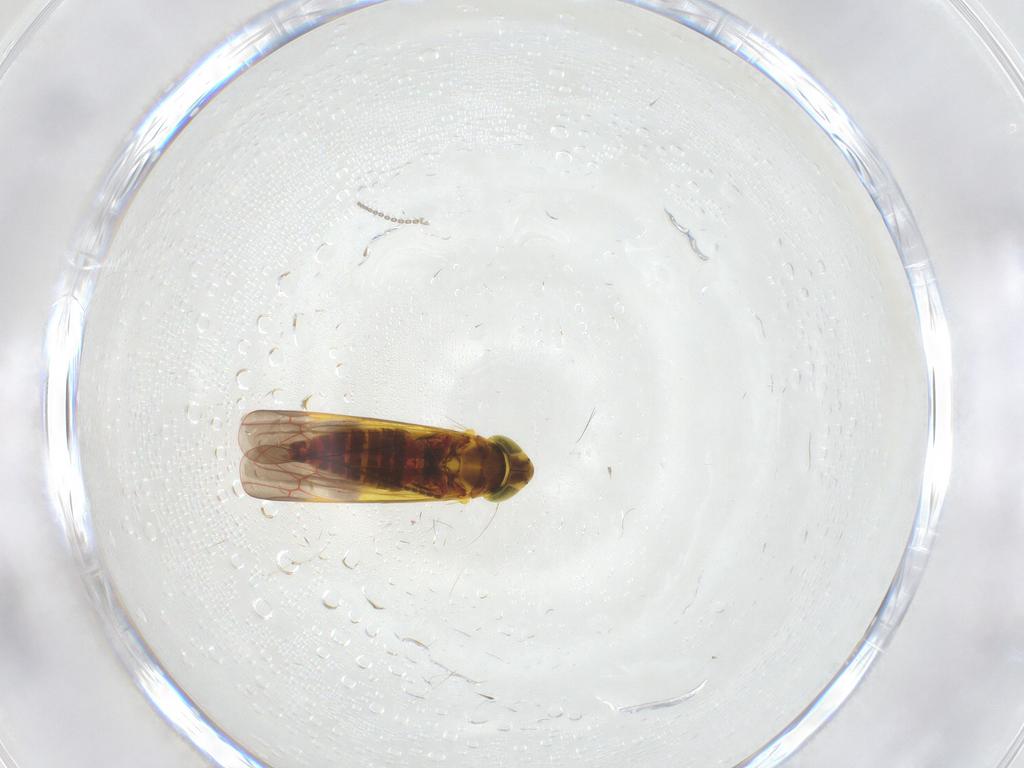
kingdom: Animalia
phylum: Arthropoda
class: Insecta
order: Hemiptera
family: Cicadellidae
